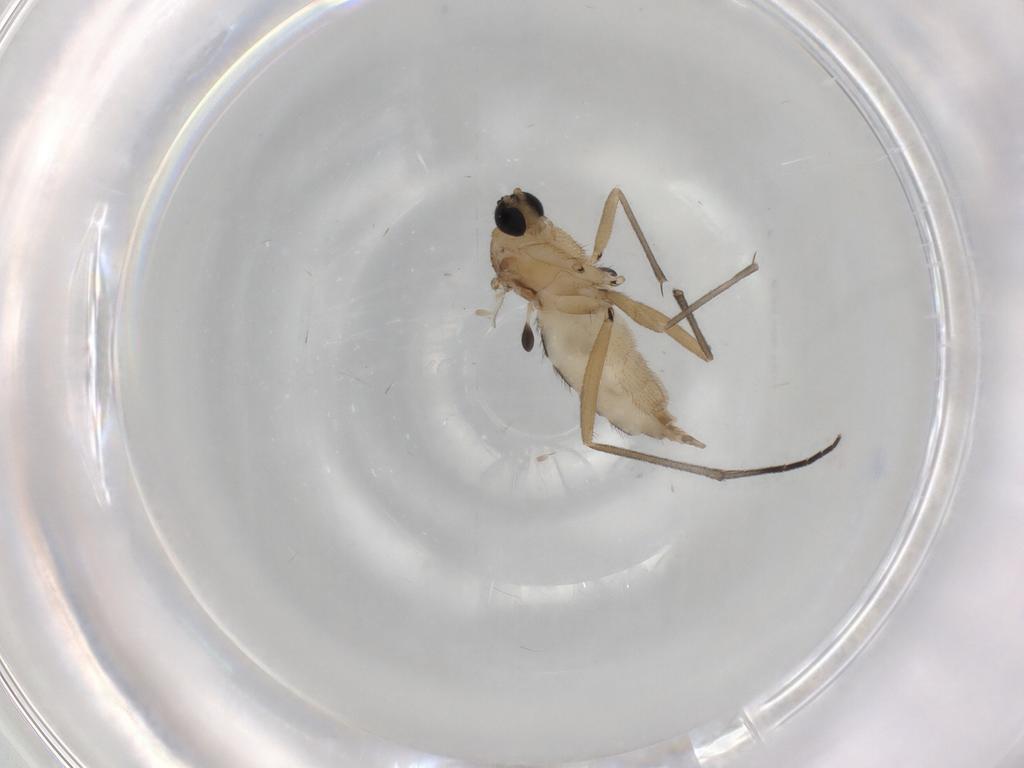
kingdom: Animalia
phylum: Arthropoda
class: Insecta
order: Diptera
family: Sciaridae
